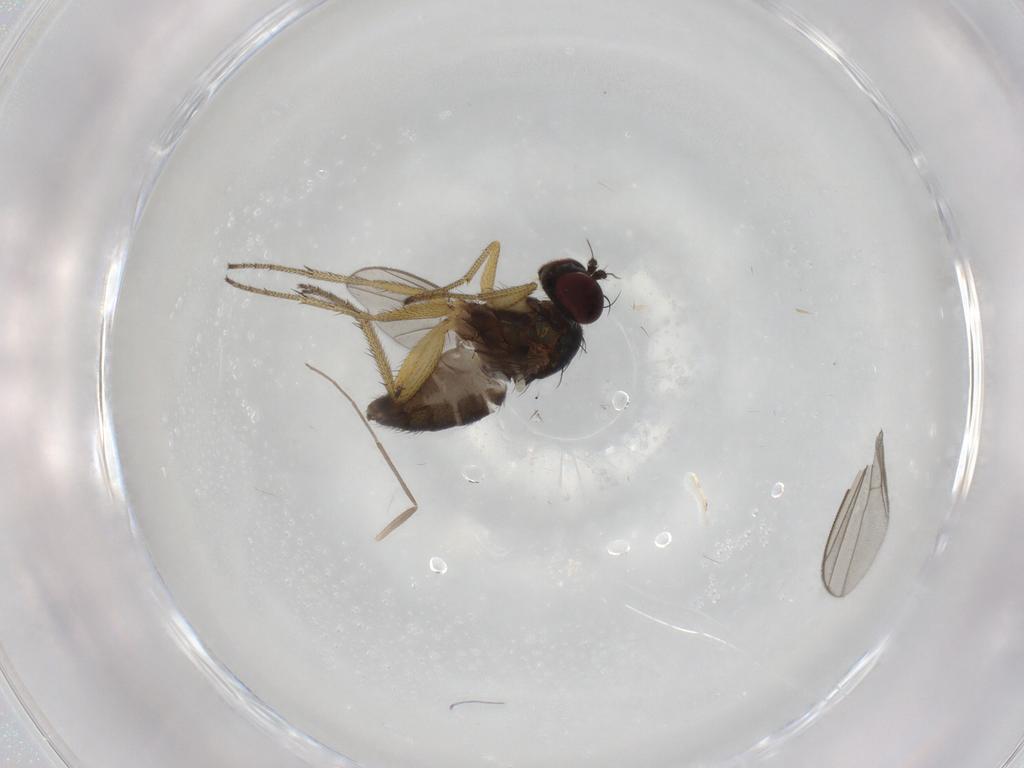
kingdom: Animalia
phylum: Arthropoda
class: Insecta
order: Diptera
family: Dolichopodidae
